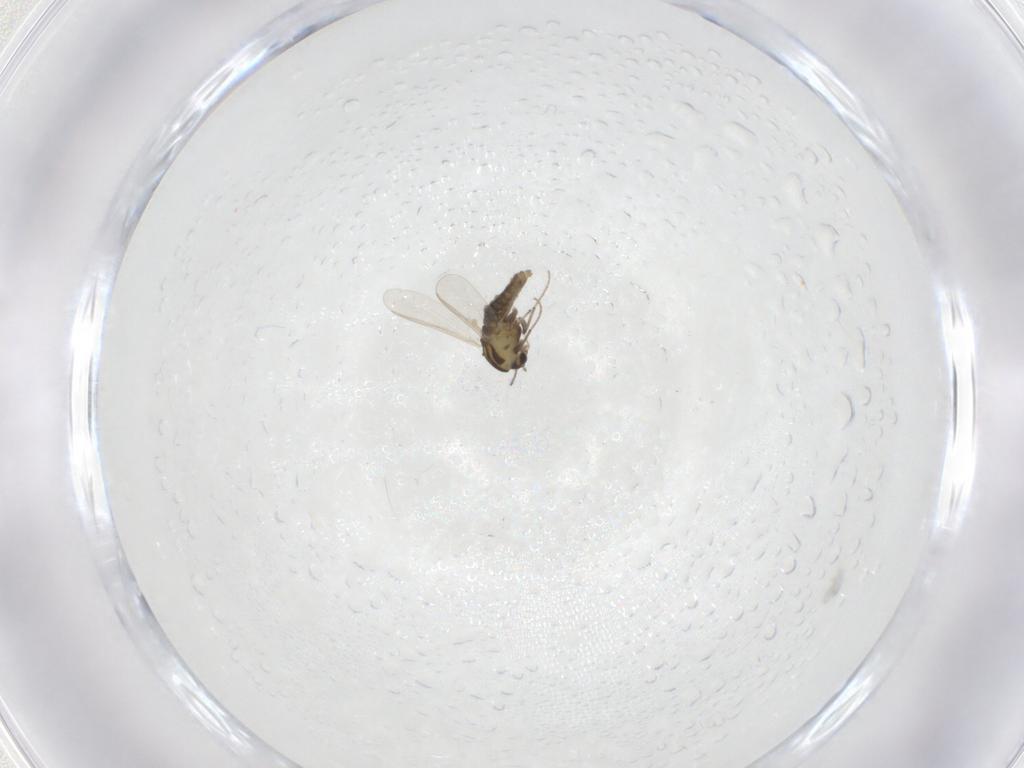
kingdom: Animalia
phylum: Arthropoda
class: Insecta
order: Diptera
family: Chironomidae
